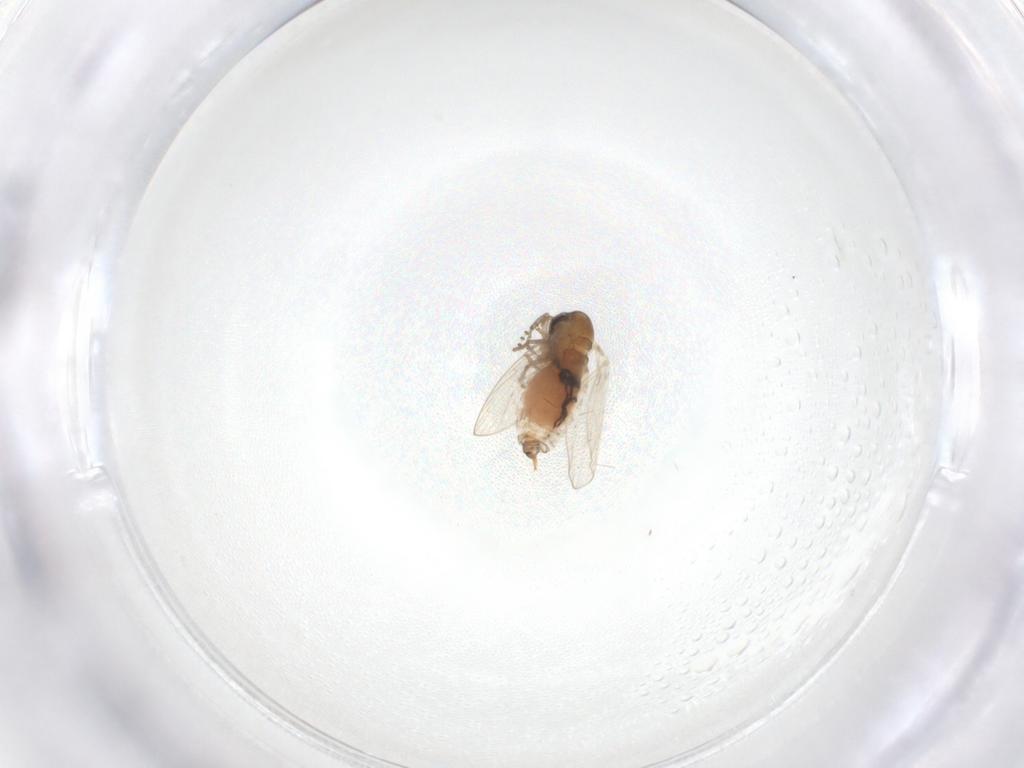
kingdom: Animalia
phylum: Arthropoda
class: Insecta
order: Diptera
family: Psychodidae
